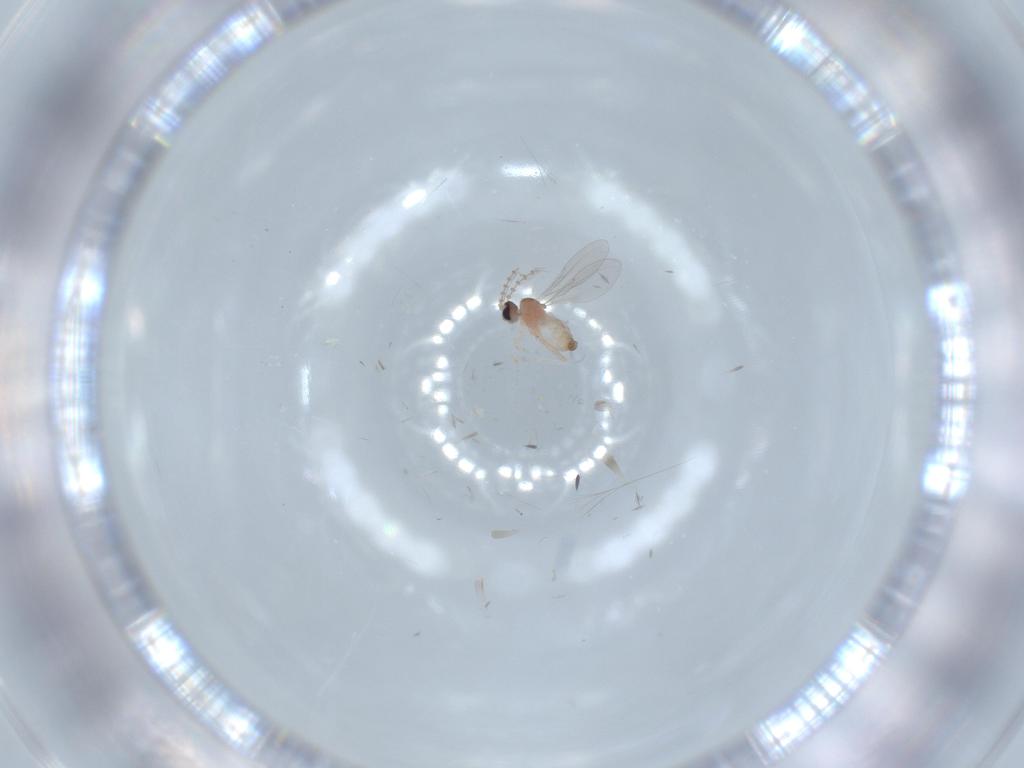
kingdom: Animalia
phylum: Arthropoda
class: Insecta
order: Diptera
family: Cecidomyiidae
